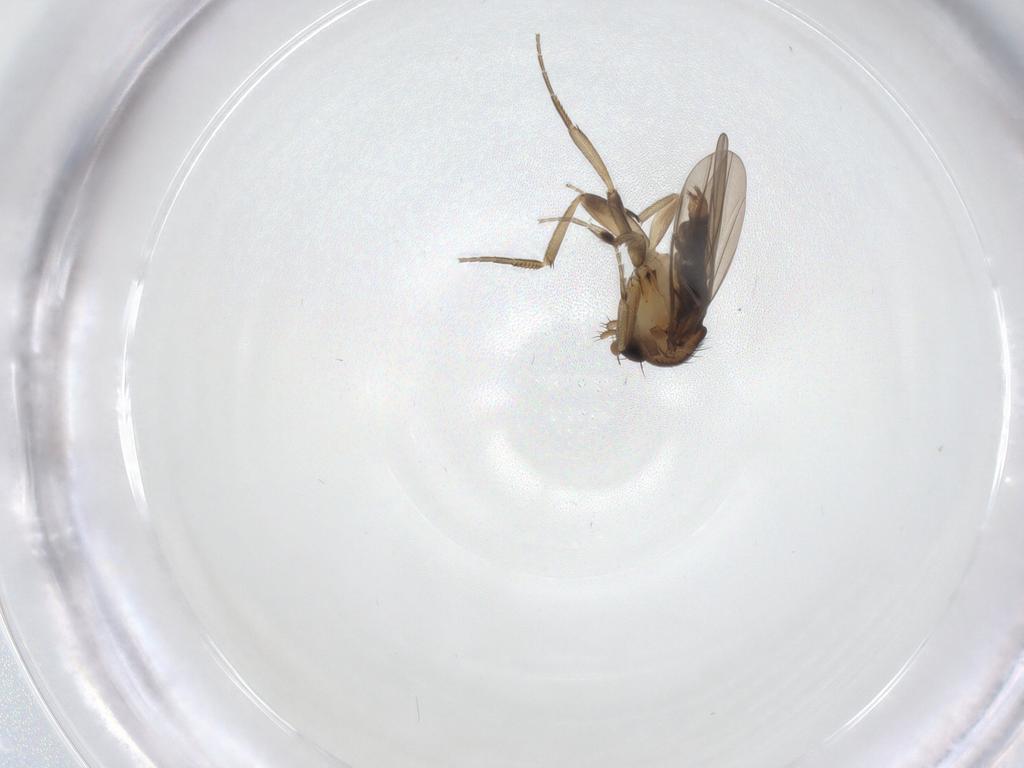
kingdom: Animalia
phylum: Arthropoda
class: Insecta
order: Diptera
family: Phoridae
